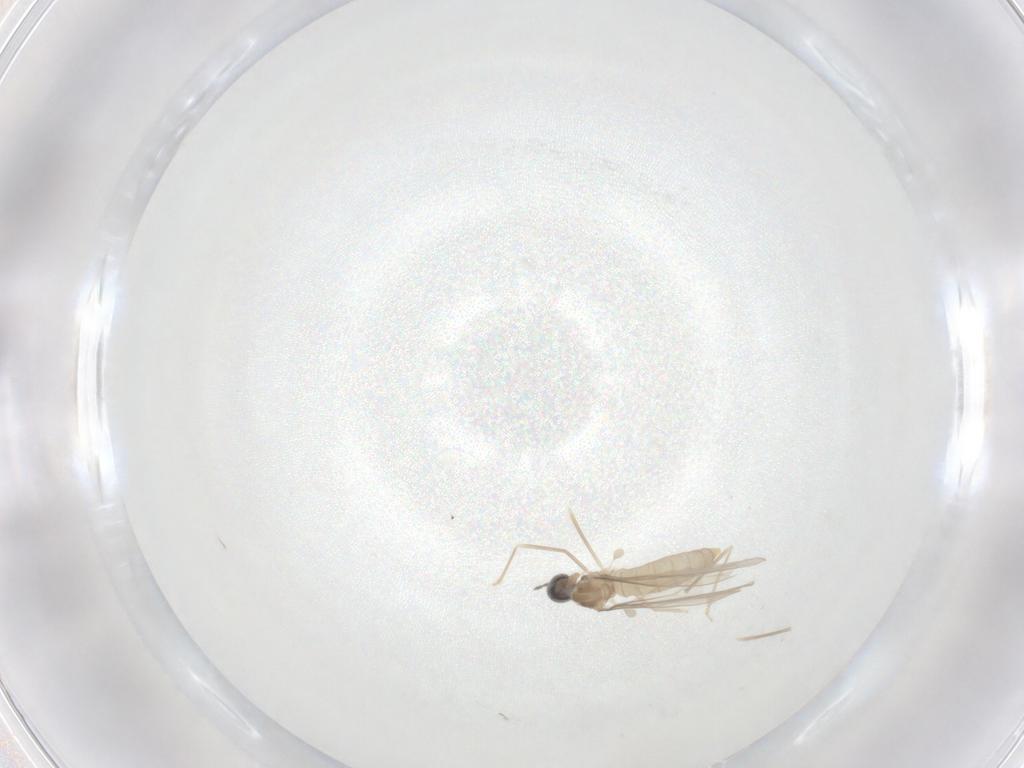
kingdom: Animalia
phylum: Arthropoda
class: Insecta
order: Diptera
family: Cecidomyiidae
